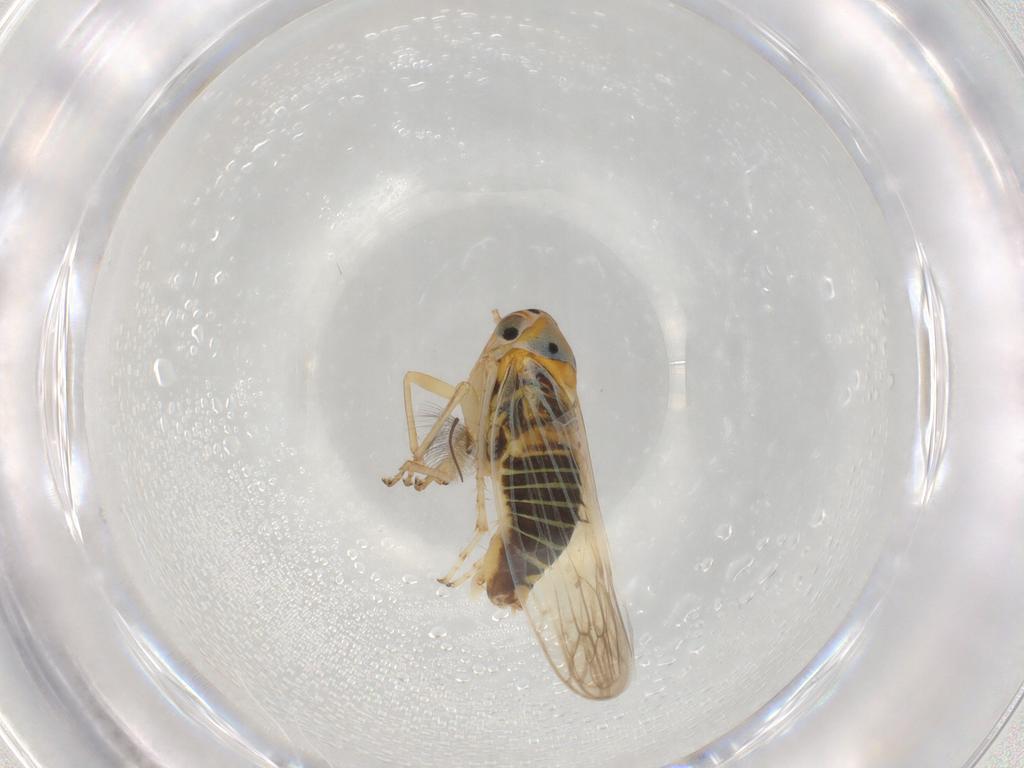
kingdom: Animalia
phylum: Arthropoda
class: Insecta
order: Hemiptera
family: Cicadellidae
